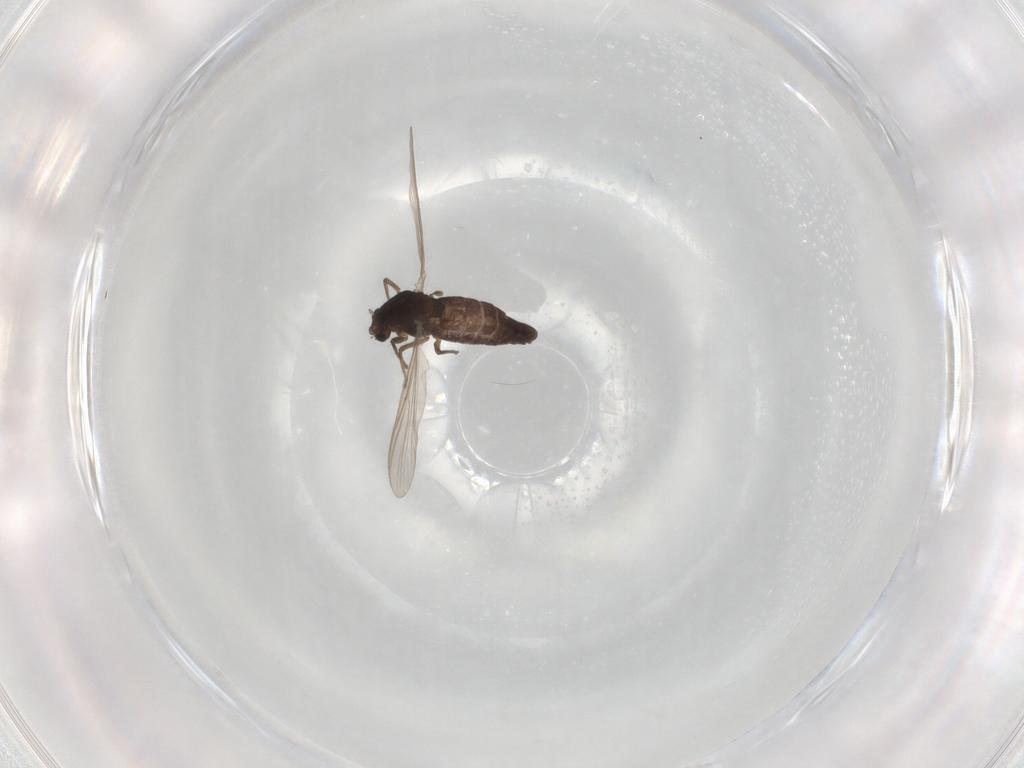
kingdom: Animalia
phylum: Arthropoda
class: Insecta
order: Diptera
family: Chironomidae
